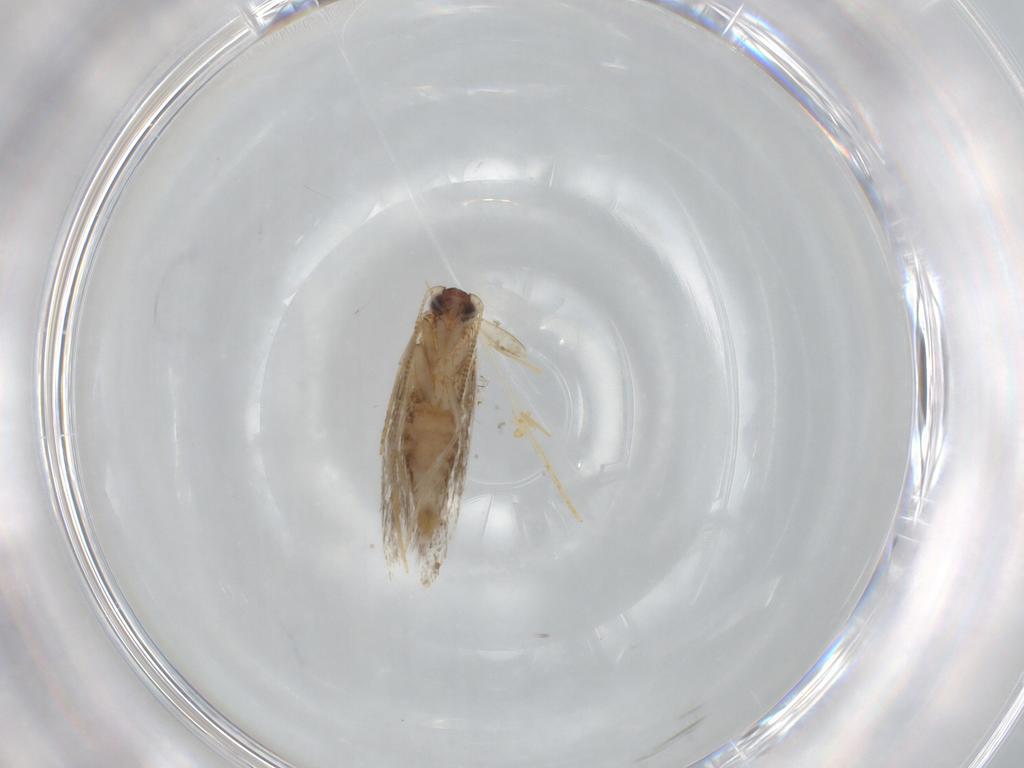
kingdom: Animalia
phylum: Arthropoda
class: Insecta
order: Lepidoptera
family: Tineidae
